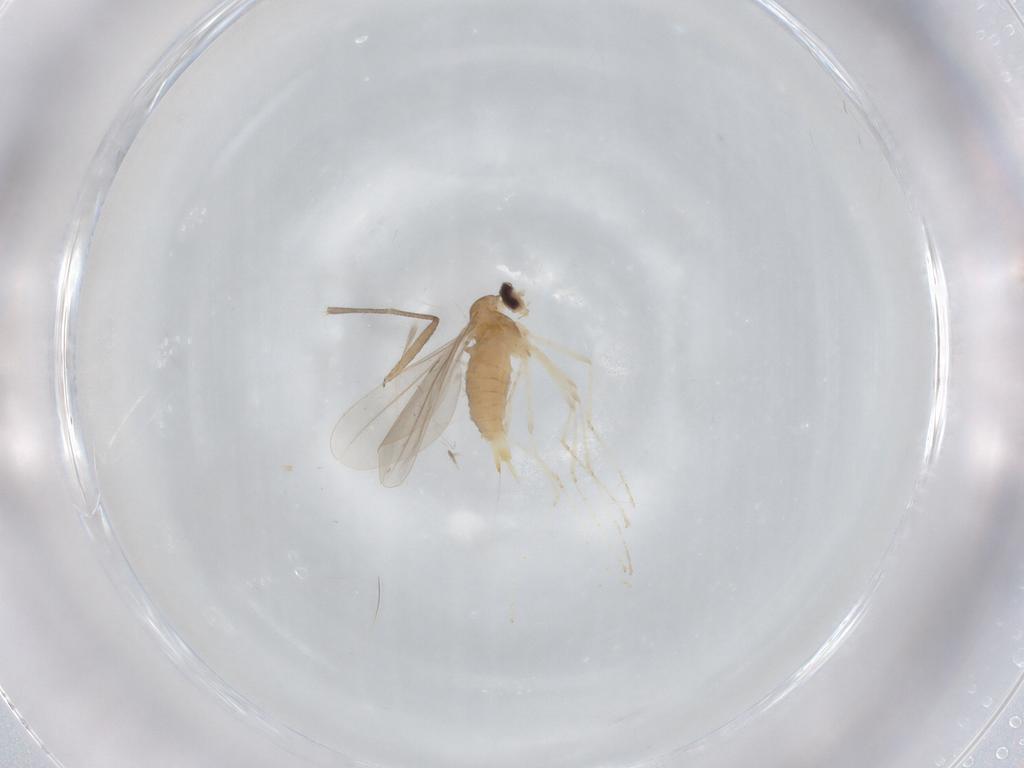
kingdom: Animalia
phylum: Arthropoda
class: Insecta
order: Diptera
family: Cecidomyiidae
